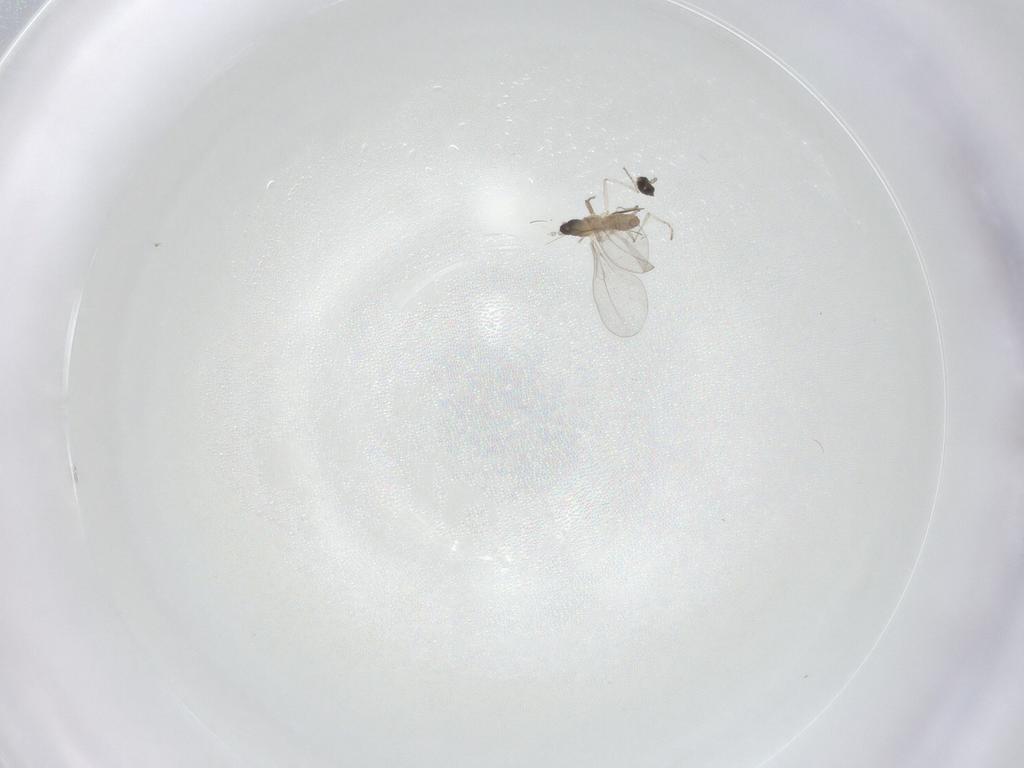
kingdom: Animalia
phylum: Arthropoda
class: Insecta
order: Diptera
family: Cecidomyiidae
